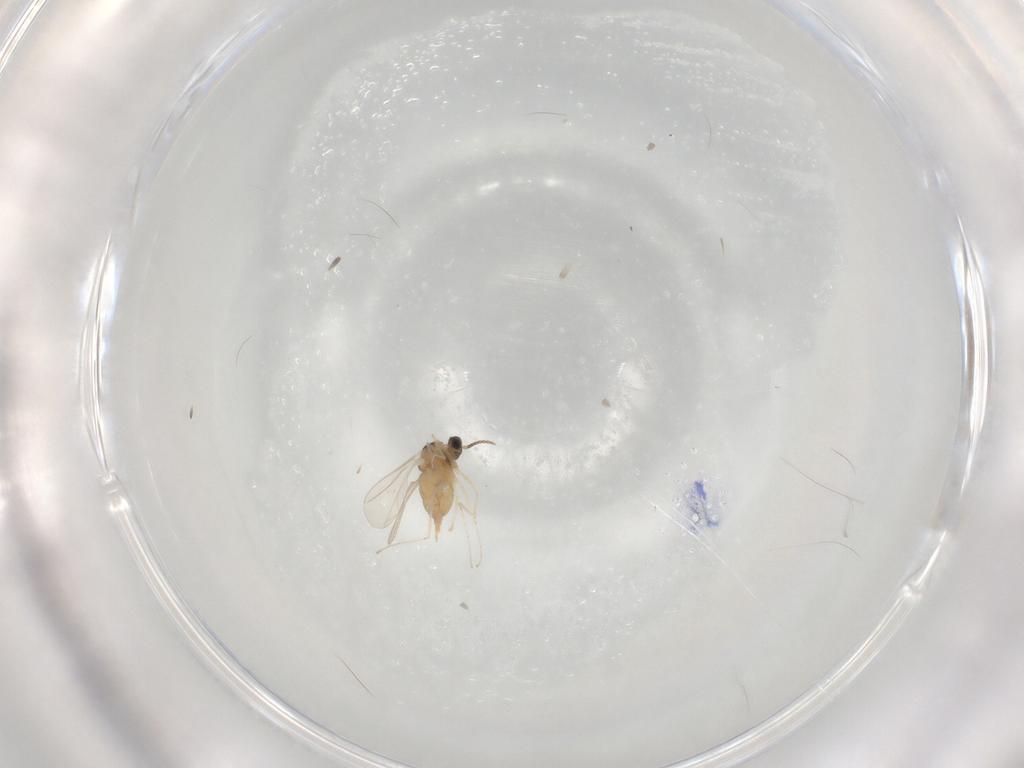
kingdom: Animalia
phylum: Arthropoda
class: Insecta
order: Diptera
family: Cecidomyiidae
